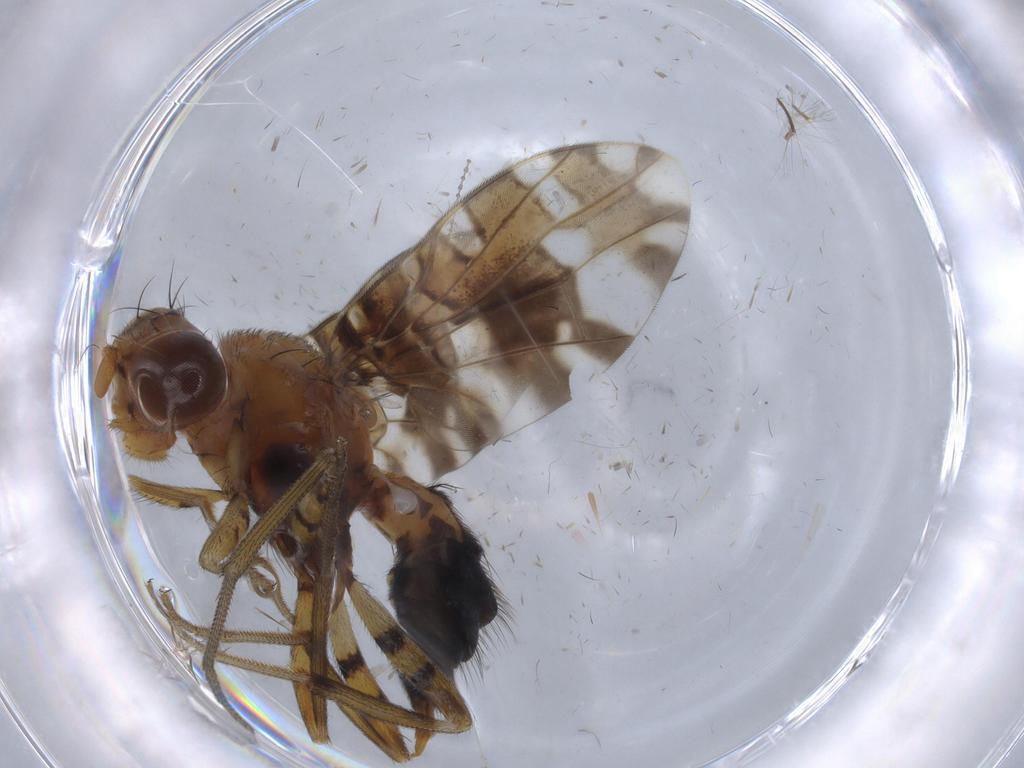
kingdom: Animalia
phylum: Arthropoda
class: Insecta
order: Diptera
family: Ulidiidae
